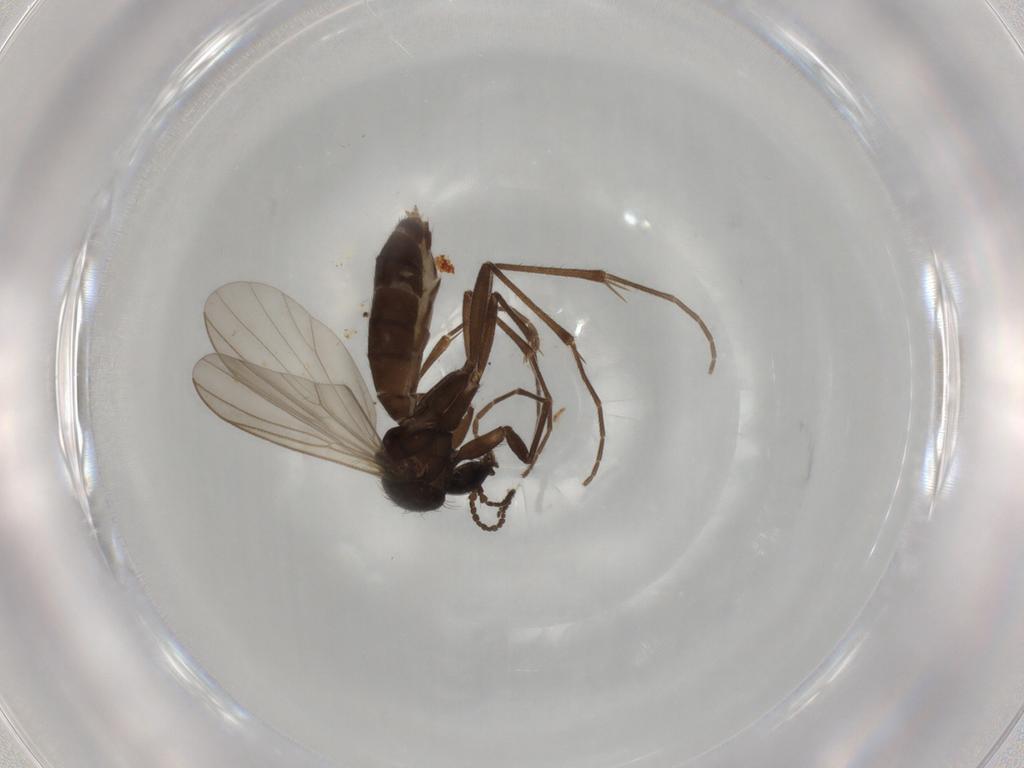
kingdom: Animalia
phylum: Arthropoda
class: Insecta
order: Diptera
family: Mycetophilidae
